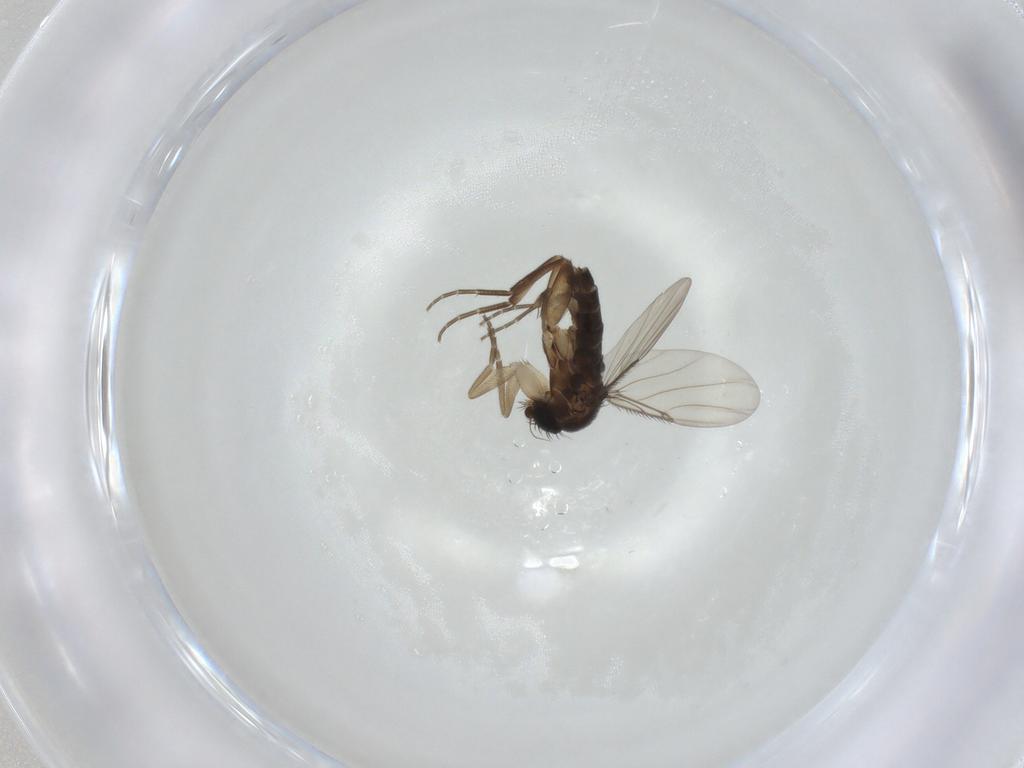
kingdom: Animalia
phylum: Arthropoda
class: Insecta
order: Diptera
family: Phoridae
